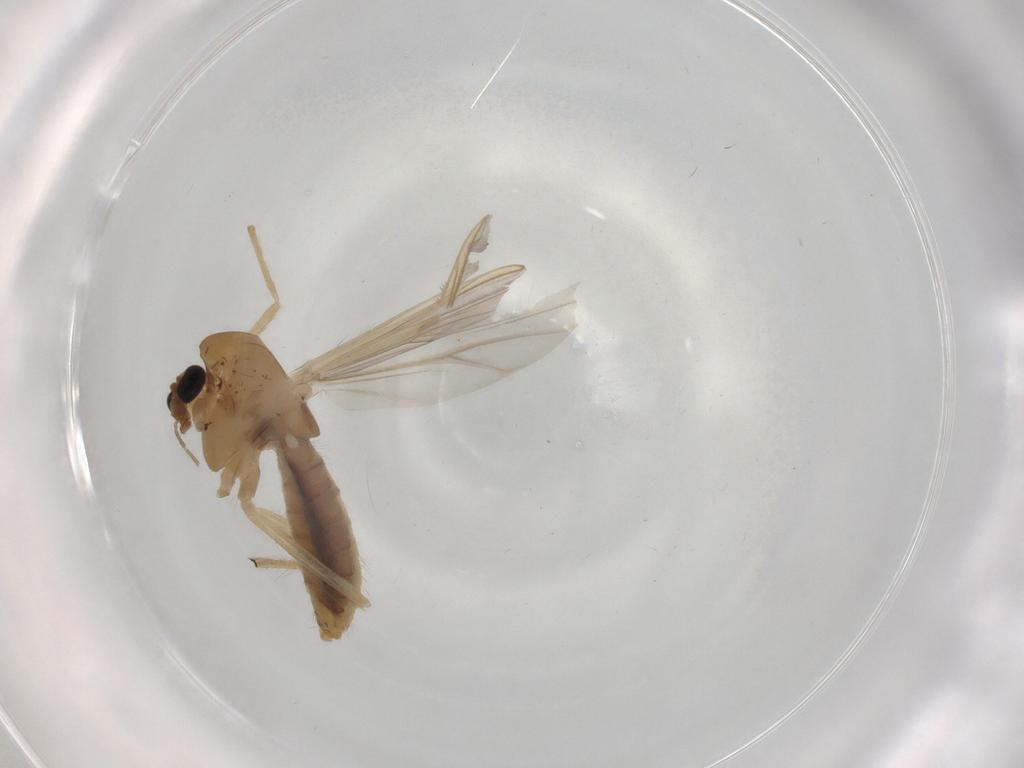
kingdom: Animalia
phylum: Arthropoda
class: Insecta
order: Diptera
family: Chironomidae
